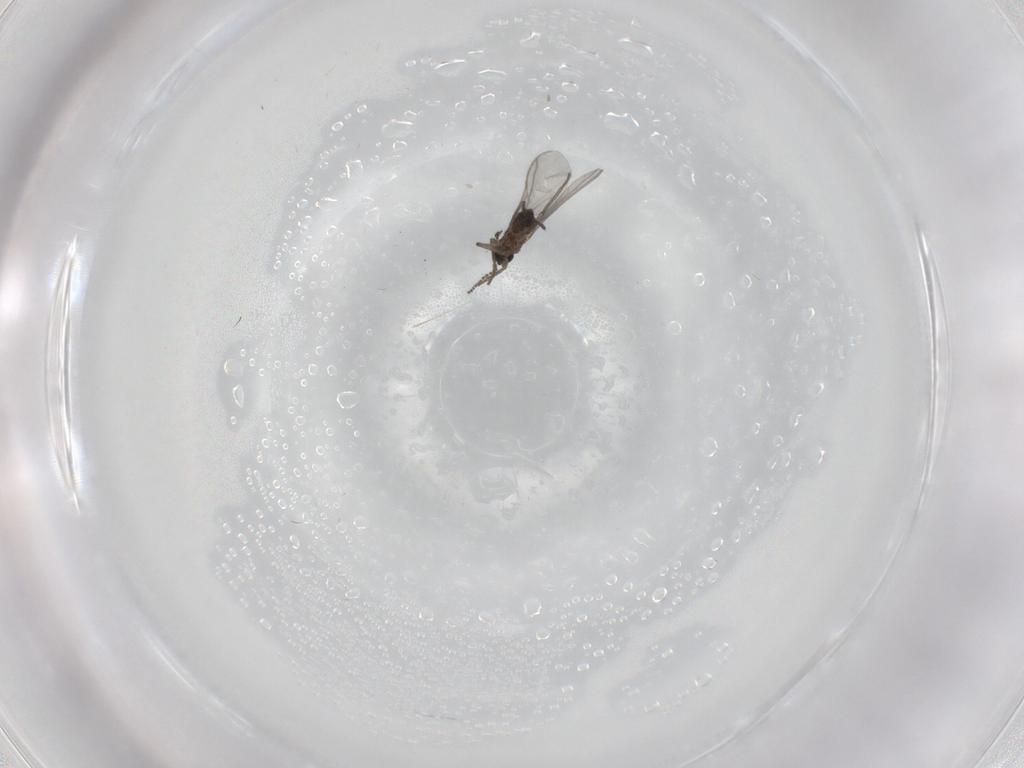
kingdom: Animalia
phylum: Arthropoda
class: Insecta
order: Diptera
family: Sciaridae
